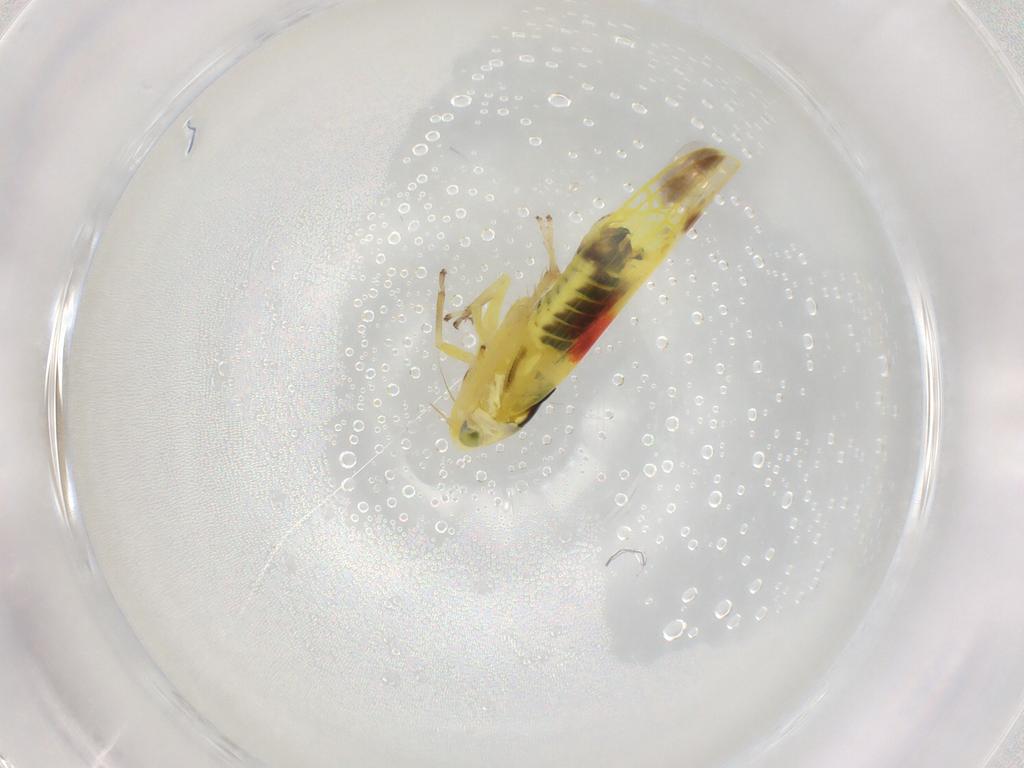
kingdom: Animalia
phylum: Arthropoda
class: Insecta
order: Hemiptera
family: Cicadellidae
